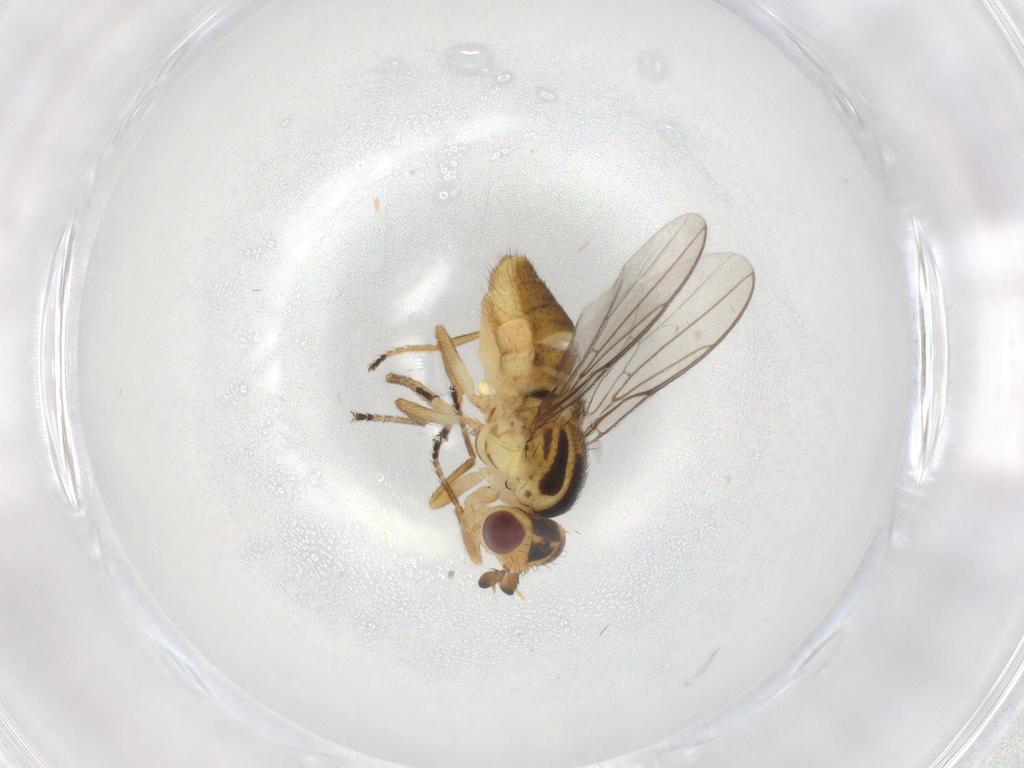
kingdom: Animalia
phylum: Arthropoda
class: Insecta
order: Diptera
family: Chloropidae
